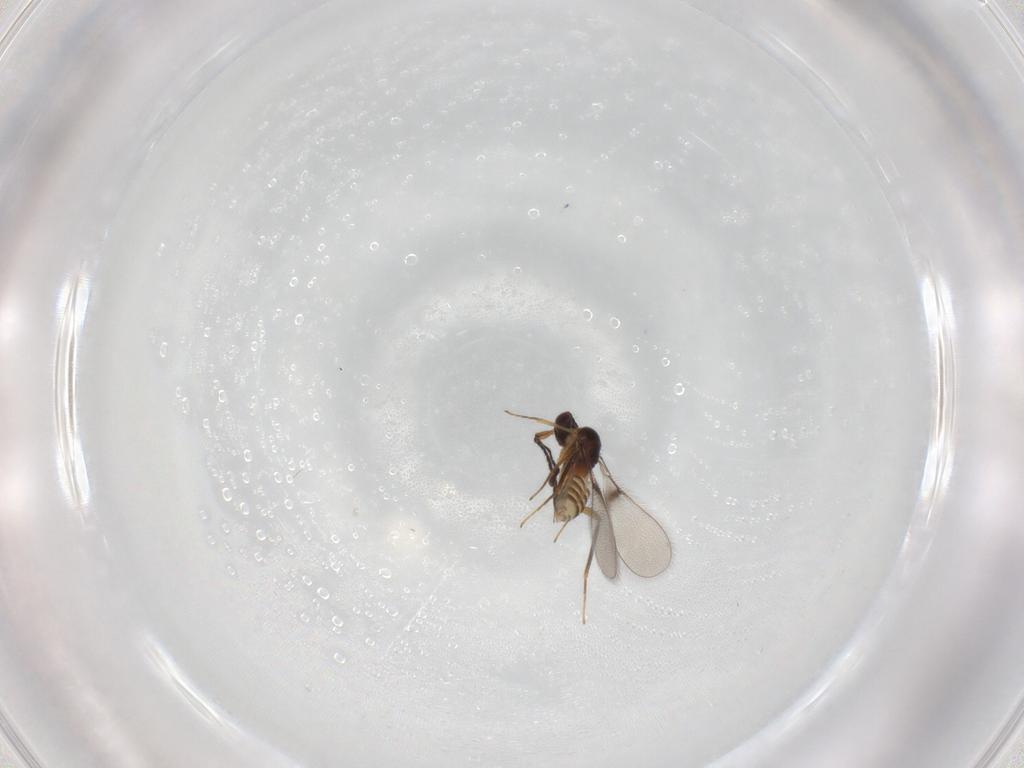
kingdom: Animalia
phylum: Arthropoda
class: Insecta
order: Hymenoptera
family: Mymaridae
